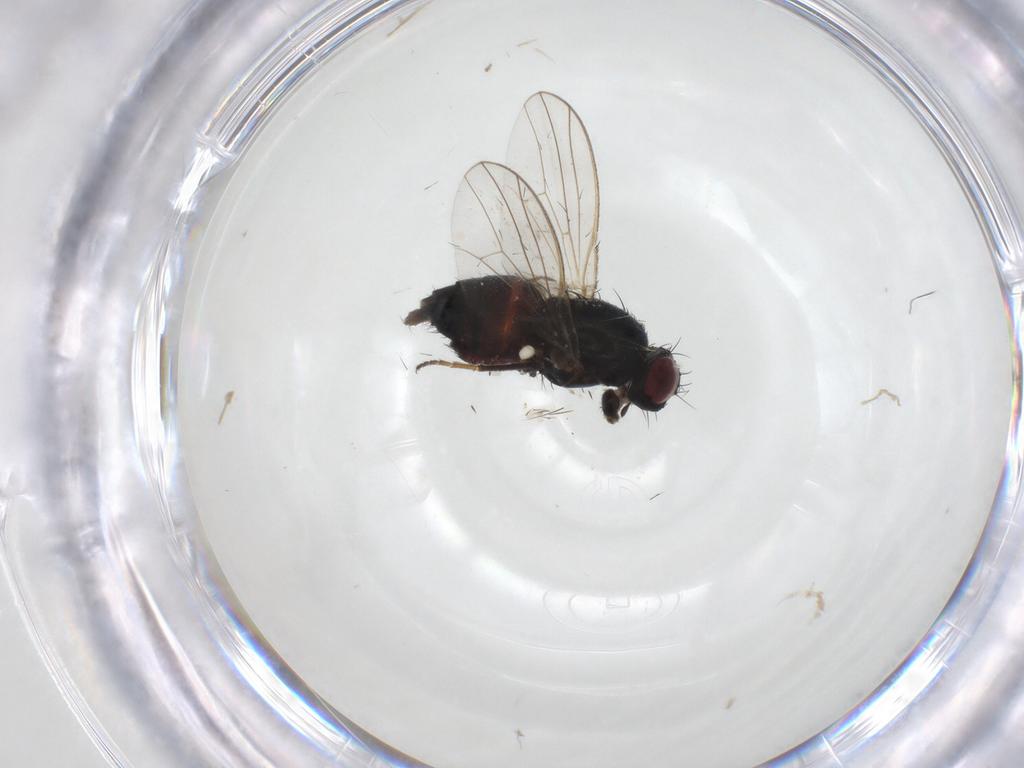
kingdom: Animalia
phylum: Arthropoda
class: Insecta
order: Diptera
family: Carnidae
